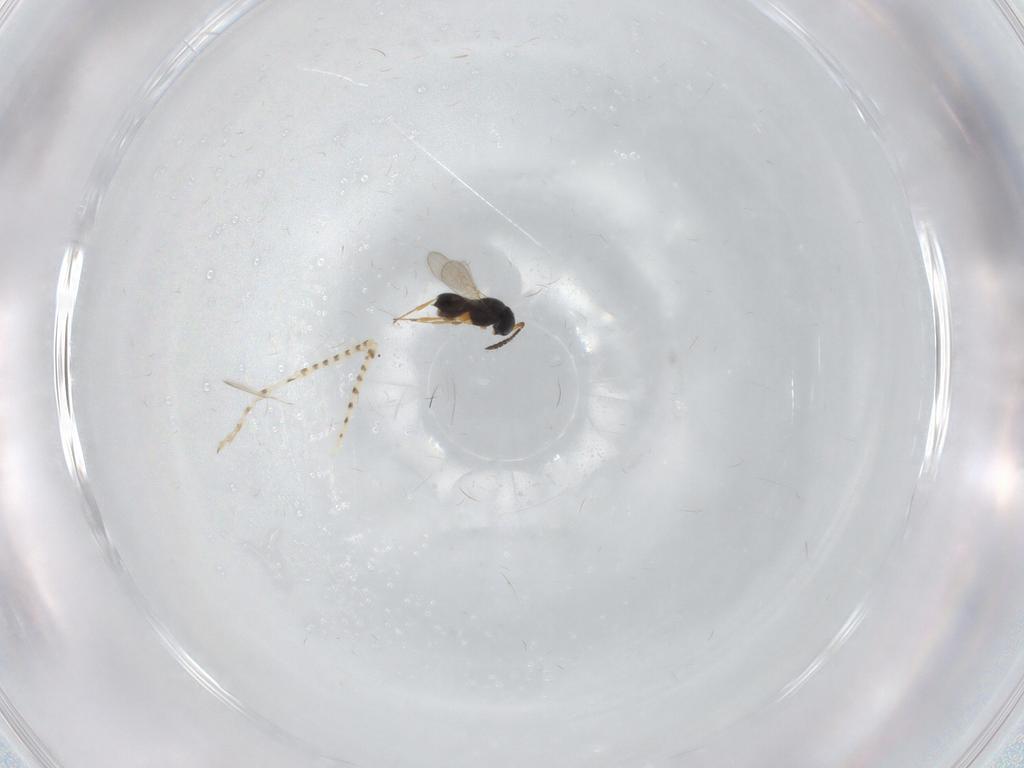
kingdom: Animalia
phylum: Arthropoda
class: Insecta
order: Hymenoptera
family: Scelionidae
